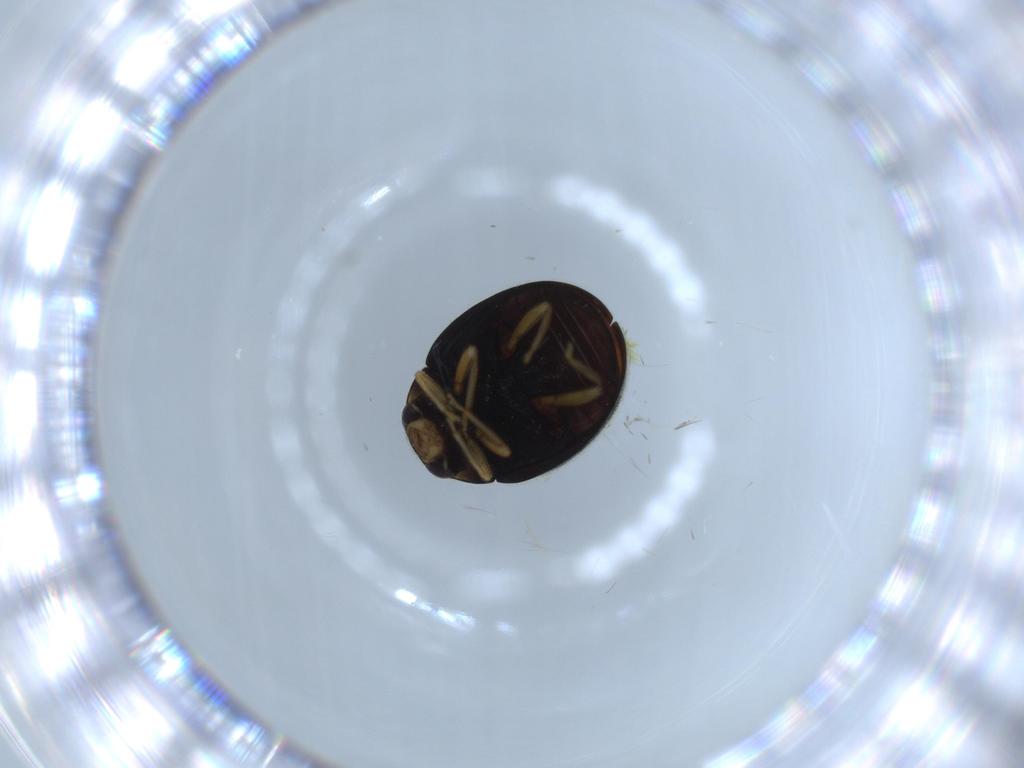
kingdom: Animalia
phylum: Arthropoda
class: Insecta
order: Coleoptera
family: Coccinellidae
